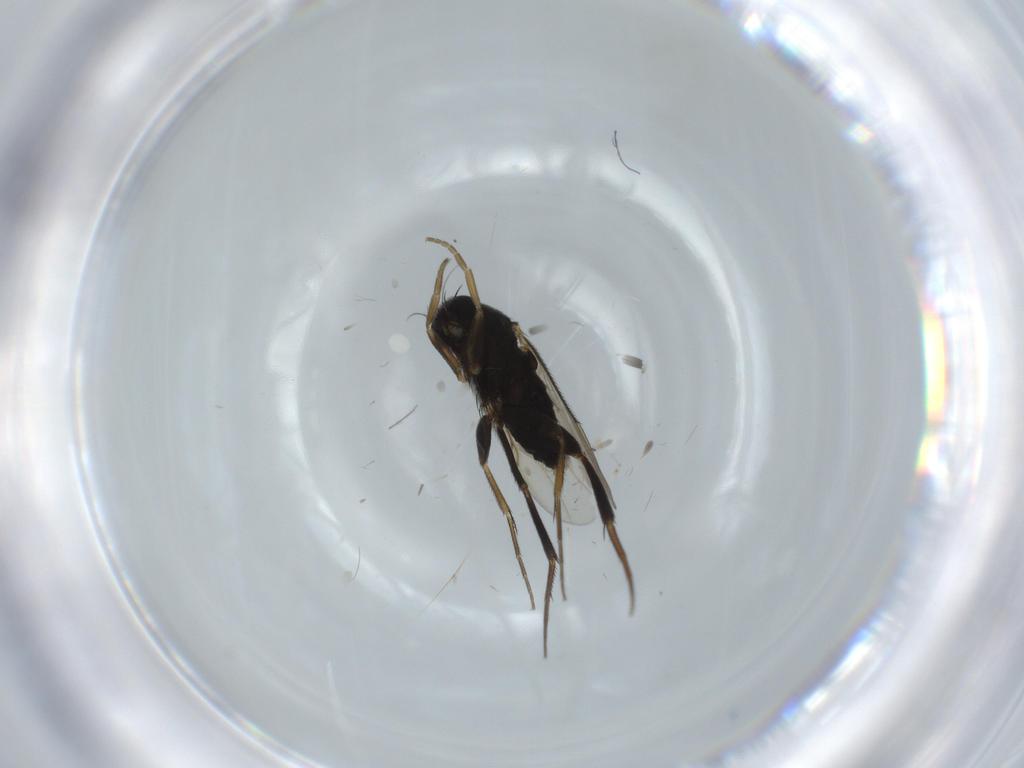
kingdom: Animalia
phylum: Arthropoda
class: Insecta
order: Diptera
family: Phoridae
